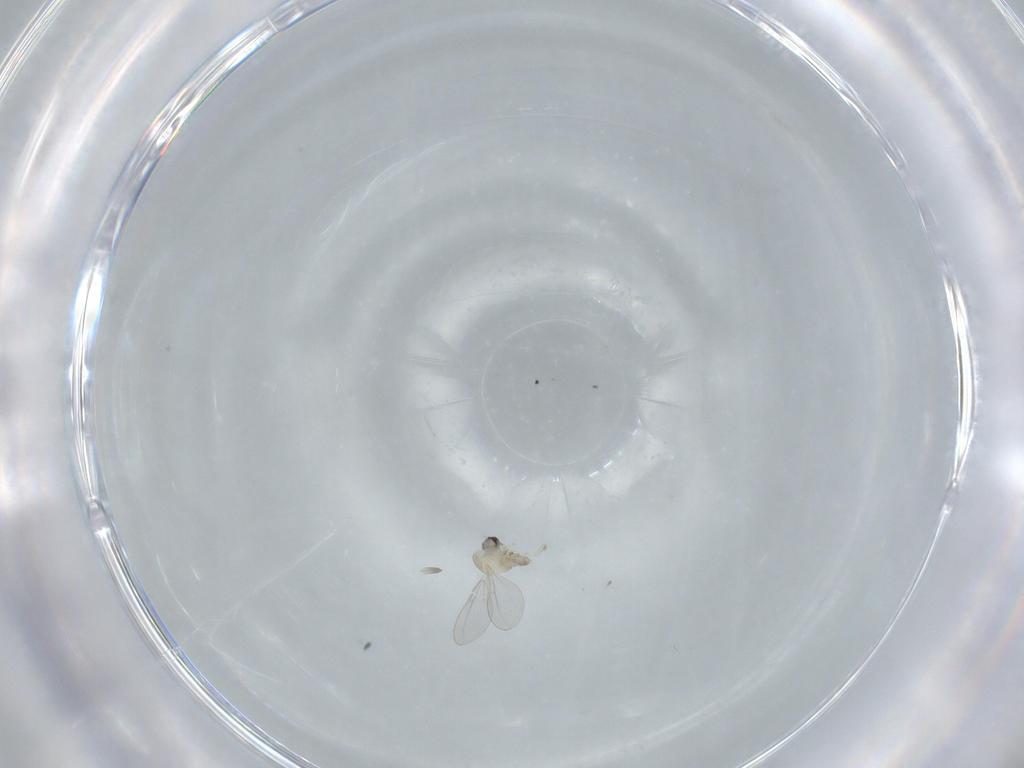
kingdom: Animalia
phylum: Arthropoda
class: Insecta
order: Diptera
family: Cecidomyiidae
